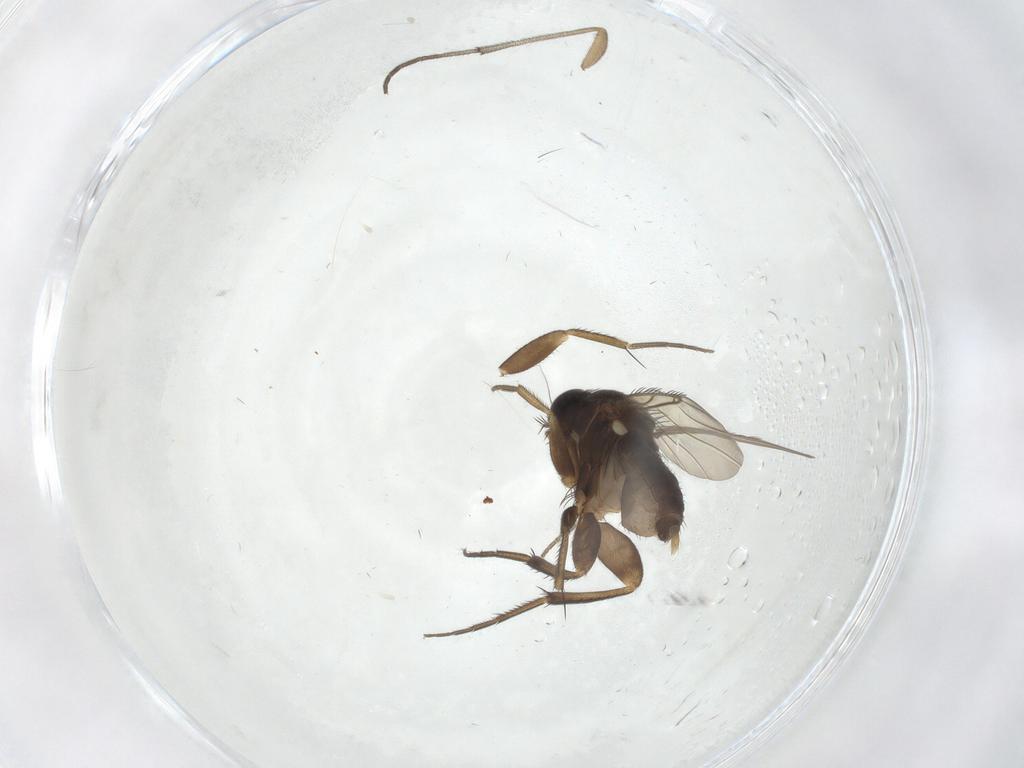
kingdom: Animalia
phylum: Arthropoda
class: Insecta
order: Diptera
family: Phoridae
